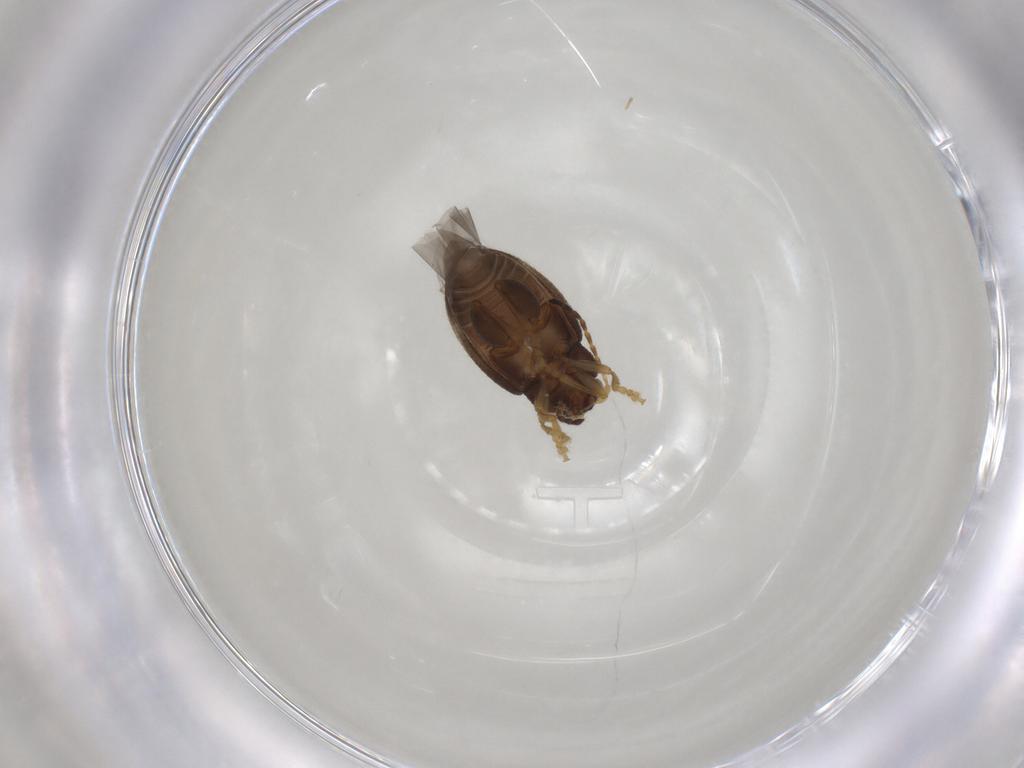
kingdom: Animalia
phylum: Arthropoda
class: Insecta
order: Coleoptera
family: Chrysomelidae
